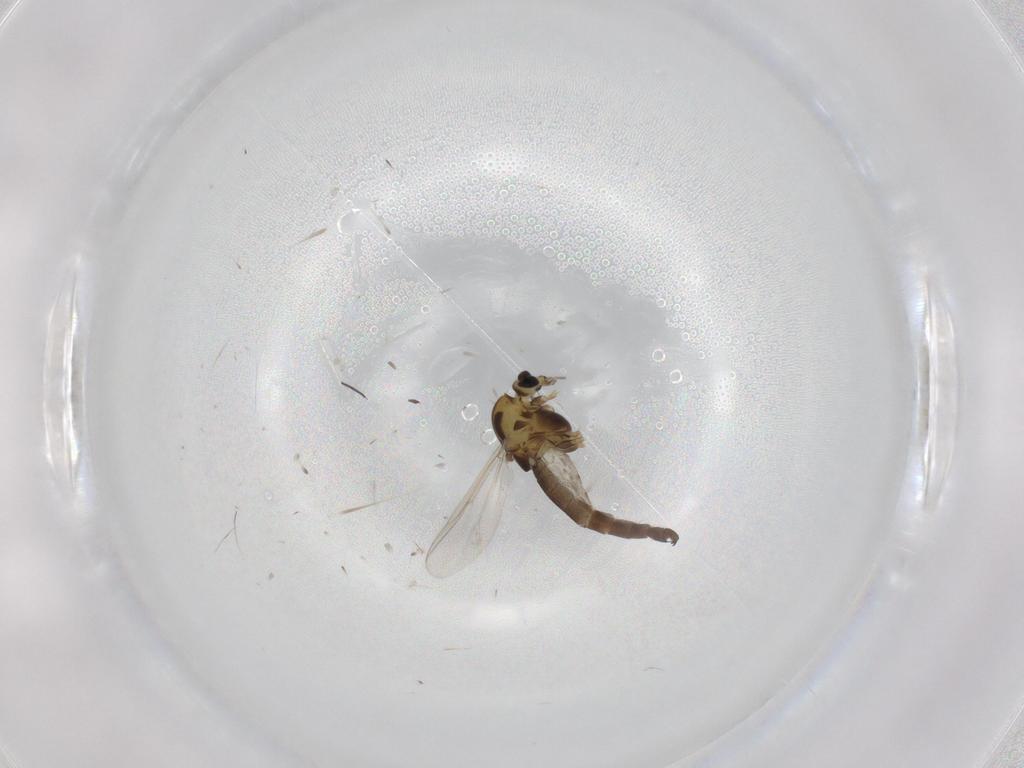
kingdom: Animalia
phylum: Arthropoda
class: Insecta
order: Diptera
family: Chironomidae
